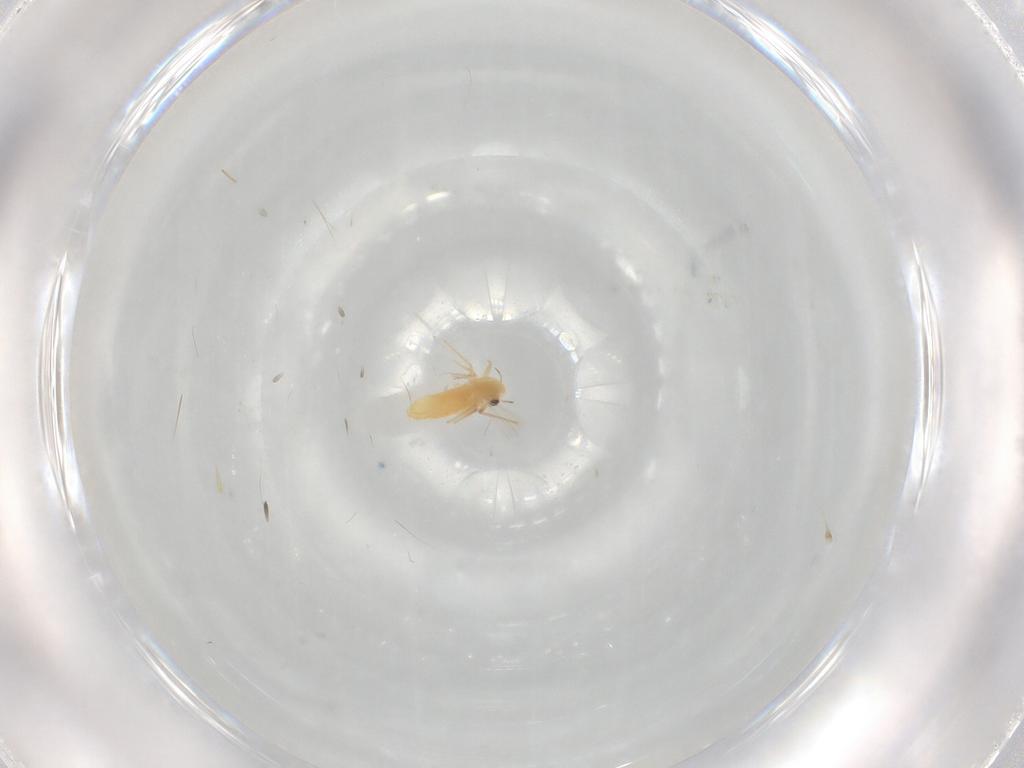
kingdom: Animalia
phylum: Arthropoda
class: Insecta
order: Diptera
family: Chironomidae
